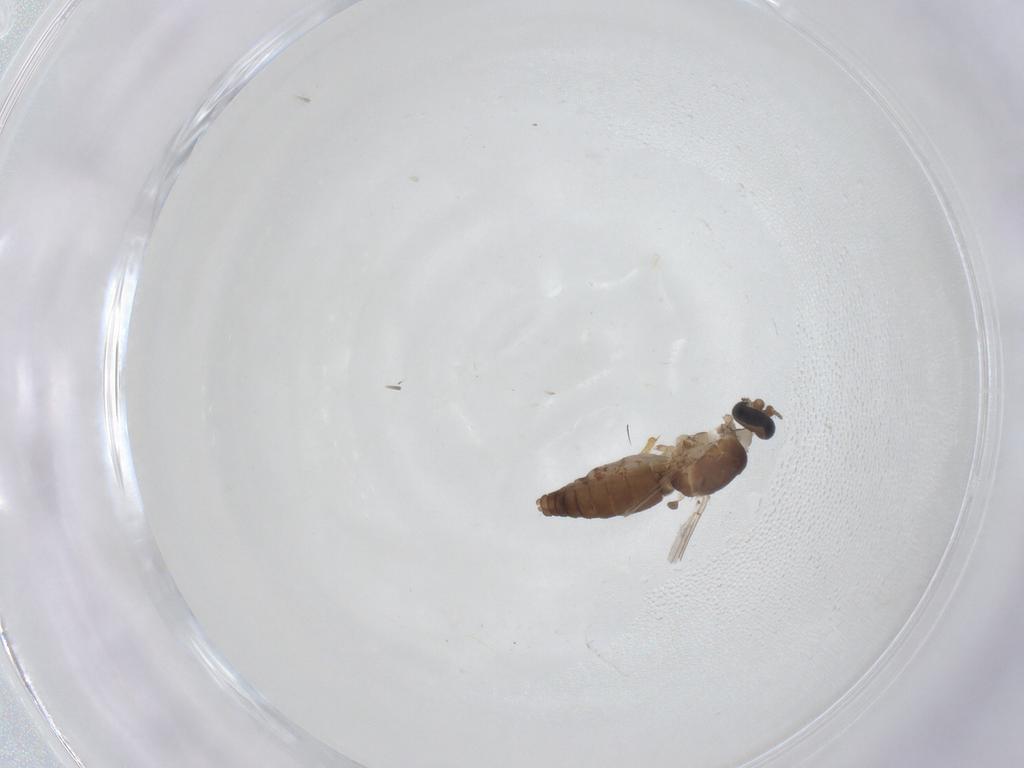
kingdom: Animalia
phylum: Arthropoda
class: Insecta
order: Diptera
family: Ceratopogonidae
